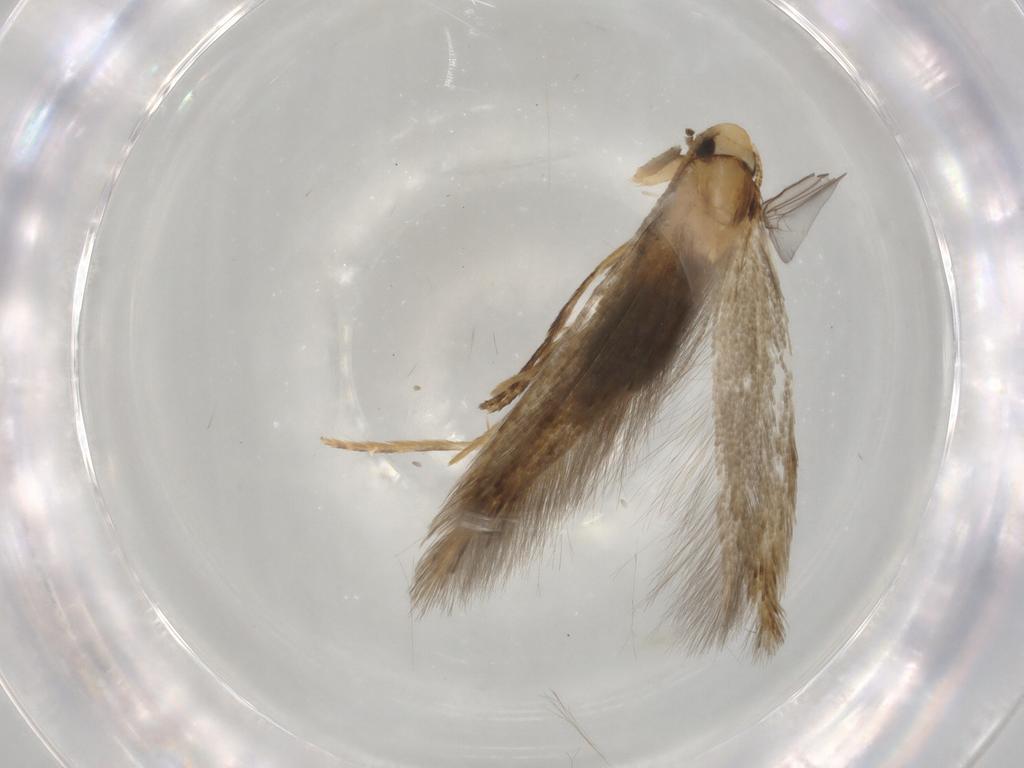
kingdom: Animalia
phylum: Arthropoda
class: Insecta
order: Lepidoptera
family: Tineidae
